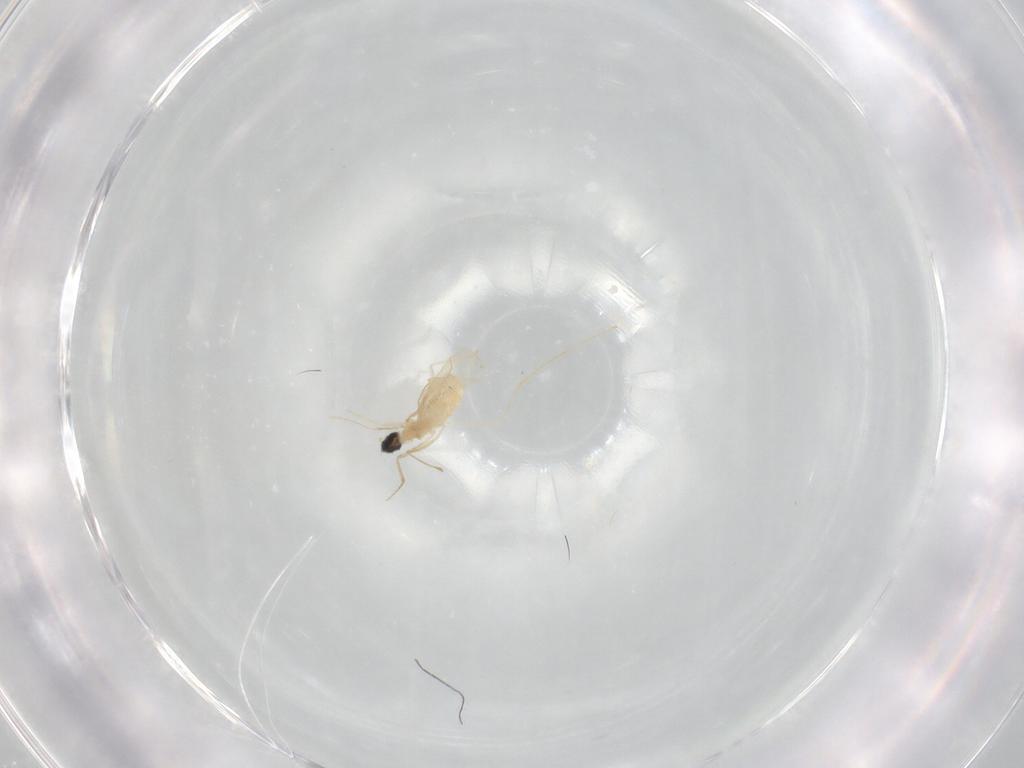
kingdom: Animalia
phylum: Arthropoda
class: Insecta
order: Diptera
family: Cecidomyiidae
